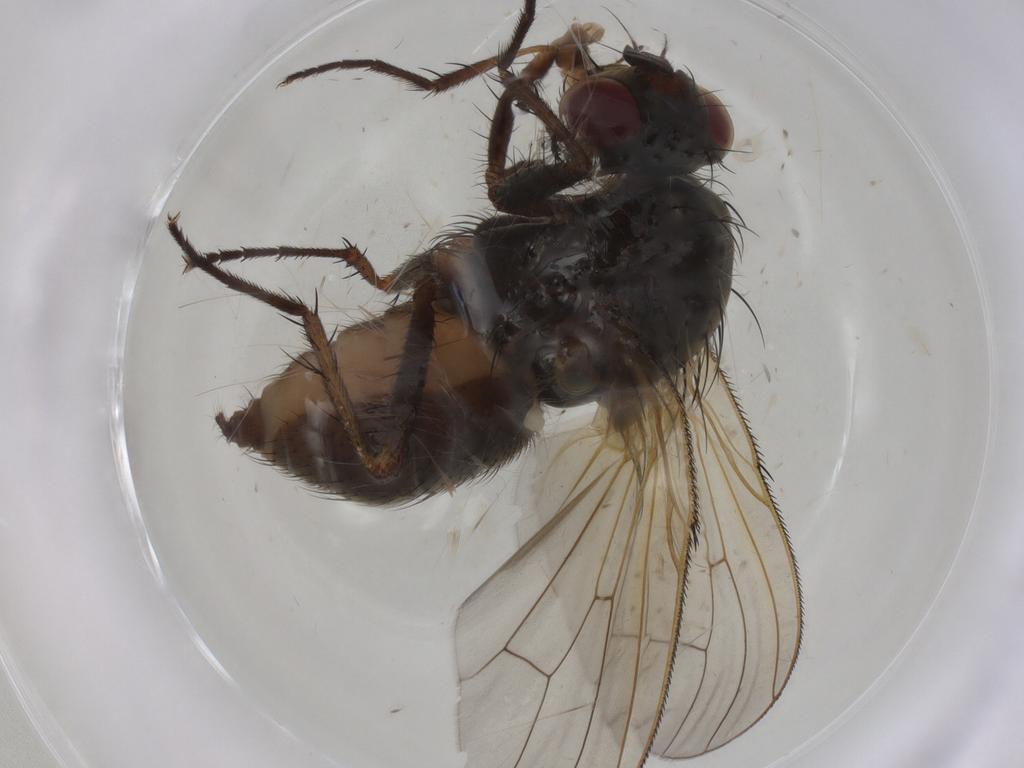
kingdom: Animalia
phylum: Arthropoda
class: Insecta
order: Diptera
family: Anthomyiidae
